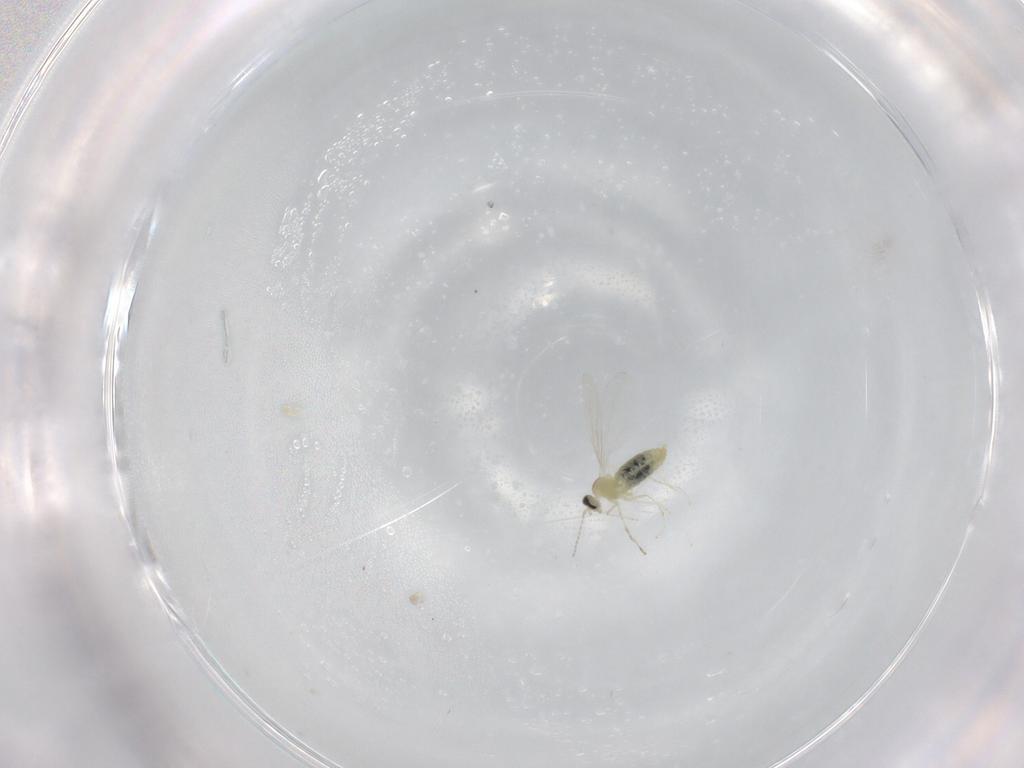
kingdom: Animalia
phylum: Arthropoda
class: Insecta
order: Diptera
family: Cecidomyiidae
